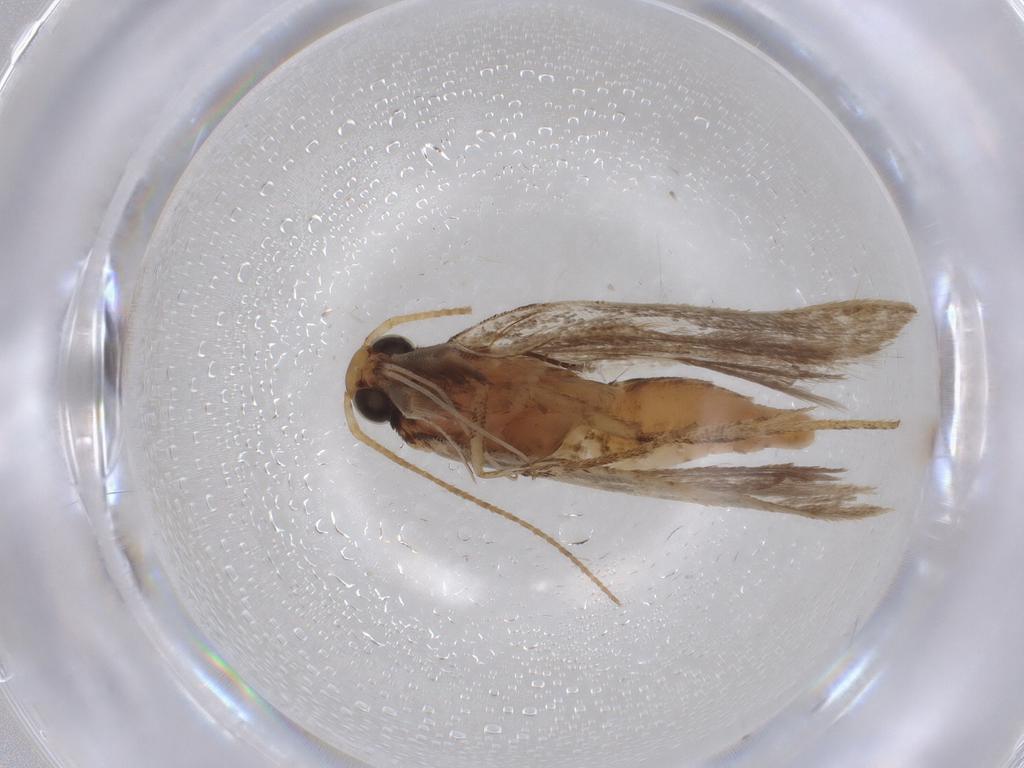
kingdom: Animalia
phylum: Arthropoda
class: Insecta
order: Lepidoptera
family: Gelechiidae
